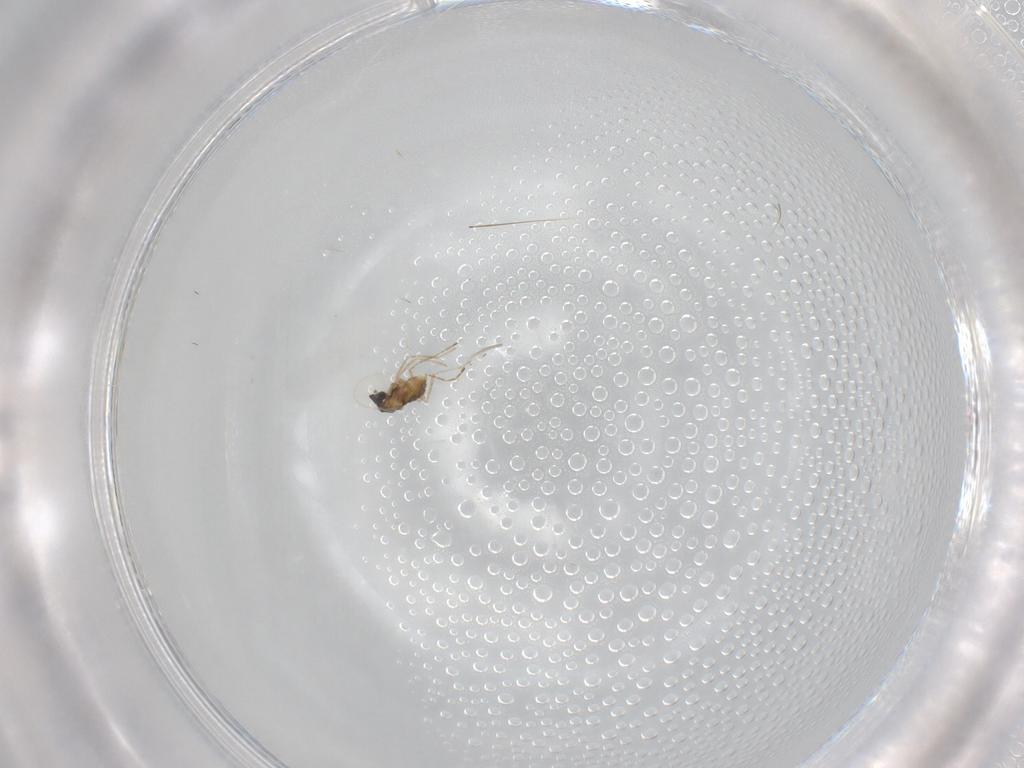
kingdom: Animalia
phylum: Arthropoda
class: Insecta
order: Diptera
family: Cecidomyiidae
